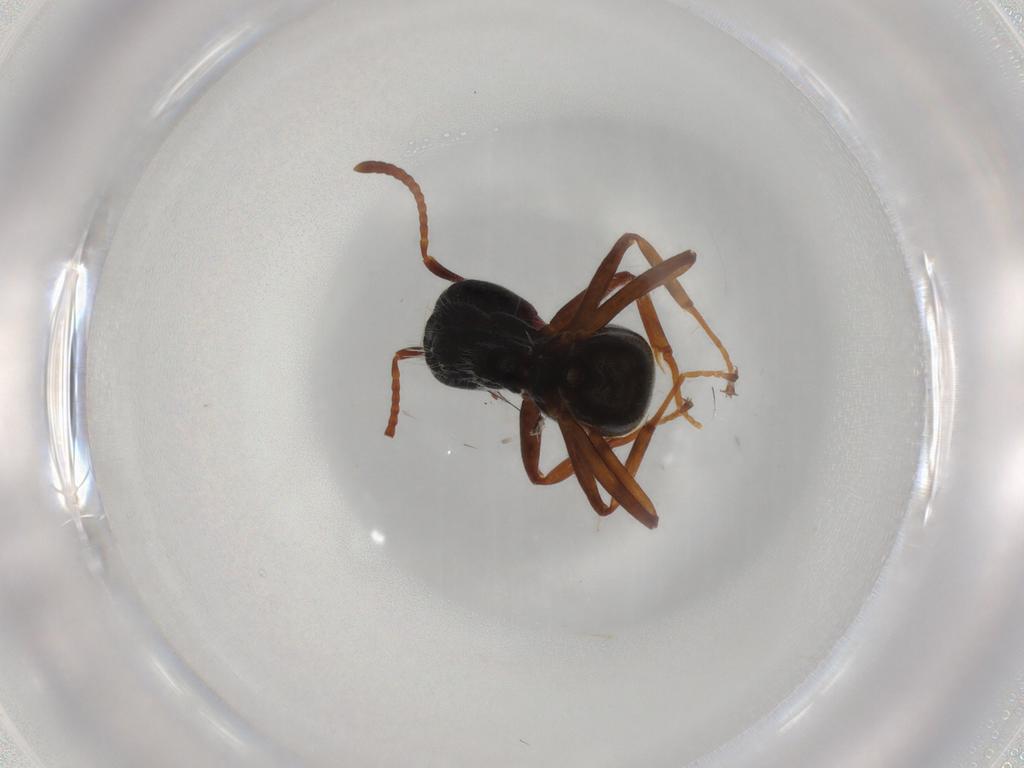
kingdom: Animalia
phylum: Arthropoda
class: Insecta
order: Hymenoptera
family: Formicidae
